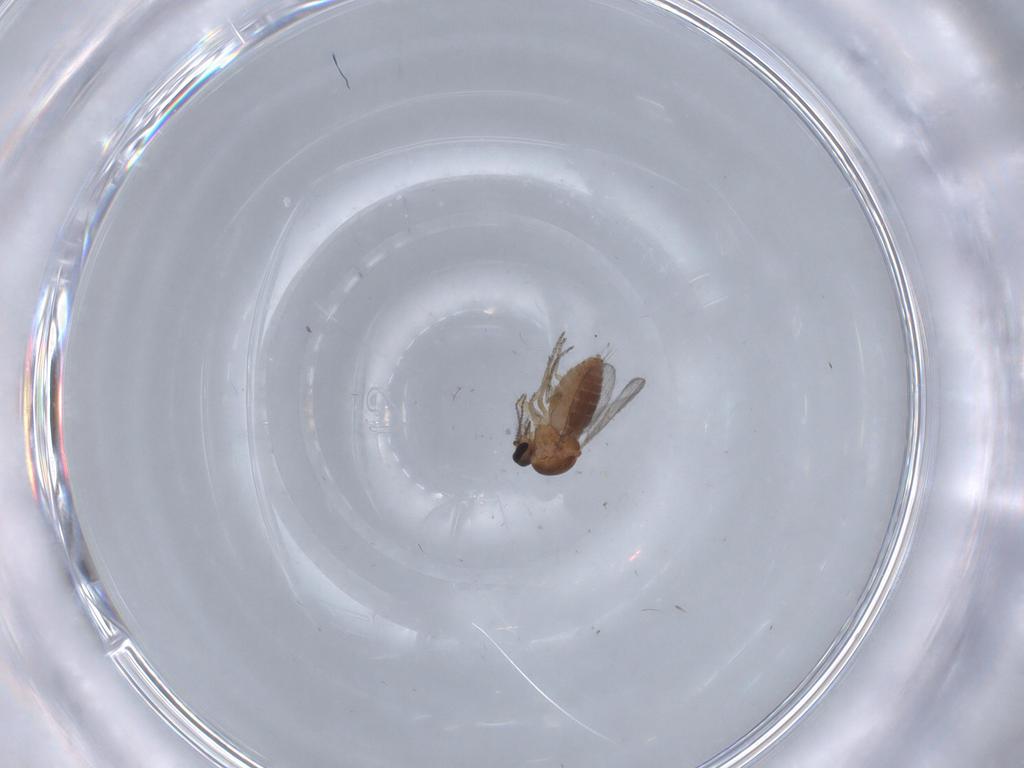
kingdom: Animalia
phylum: Arthropoda
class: Insecta
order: Diptera
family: Ceratopogonidae
